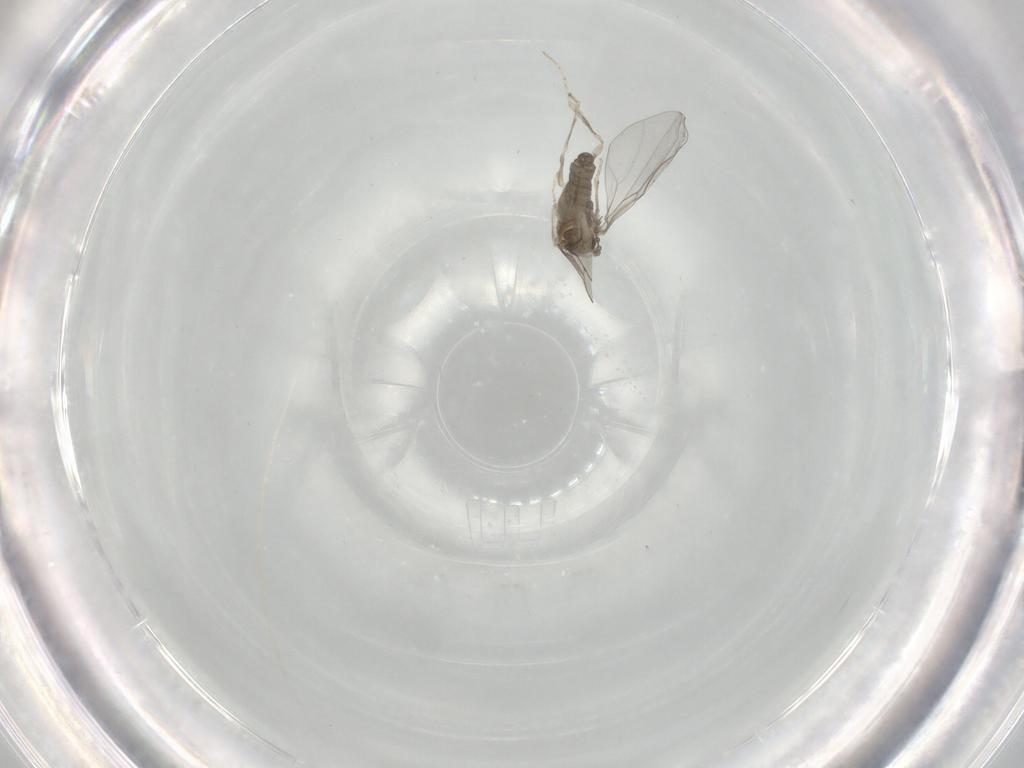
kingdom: Animalia
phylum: Arthropoda
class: Insecta
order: Diptera
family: Cecidomyiidae
